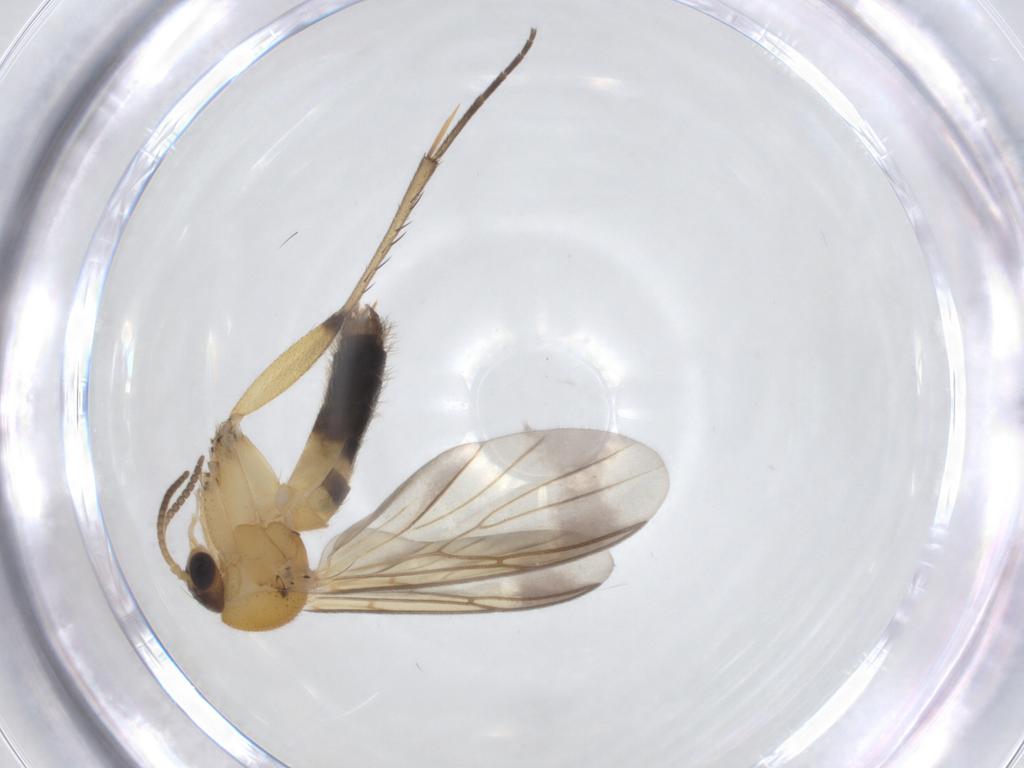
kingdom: Animalia
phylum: Arthropoda
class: Insecta
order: Diptera
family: Mycetophilidae
